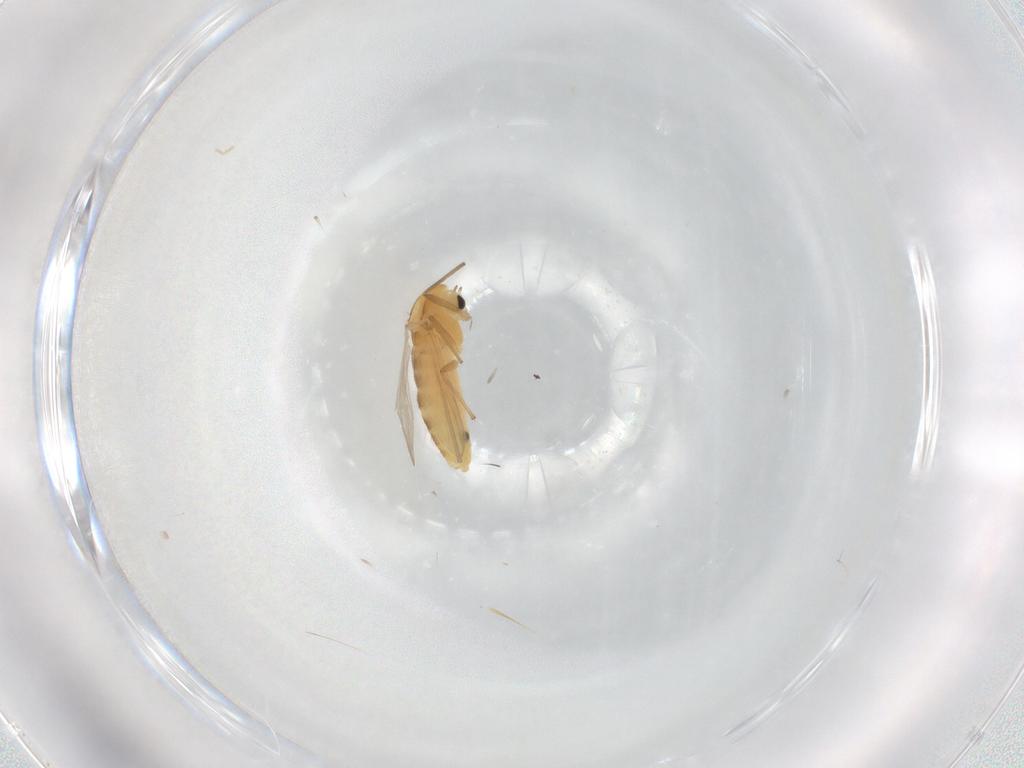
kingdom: Animalia
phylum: Arthropoda
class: Insecta
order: Diptera
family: Chironomidae
